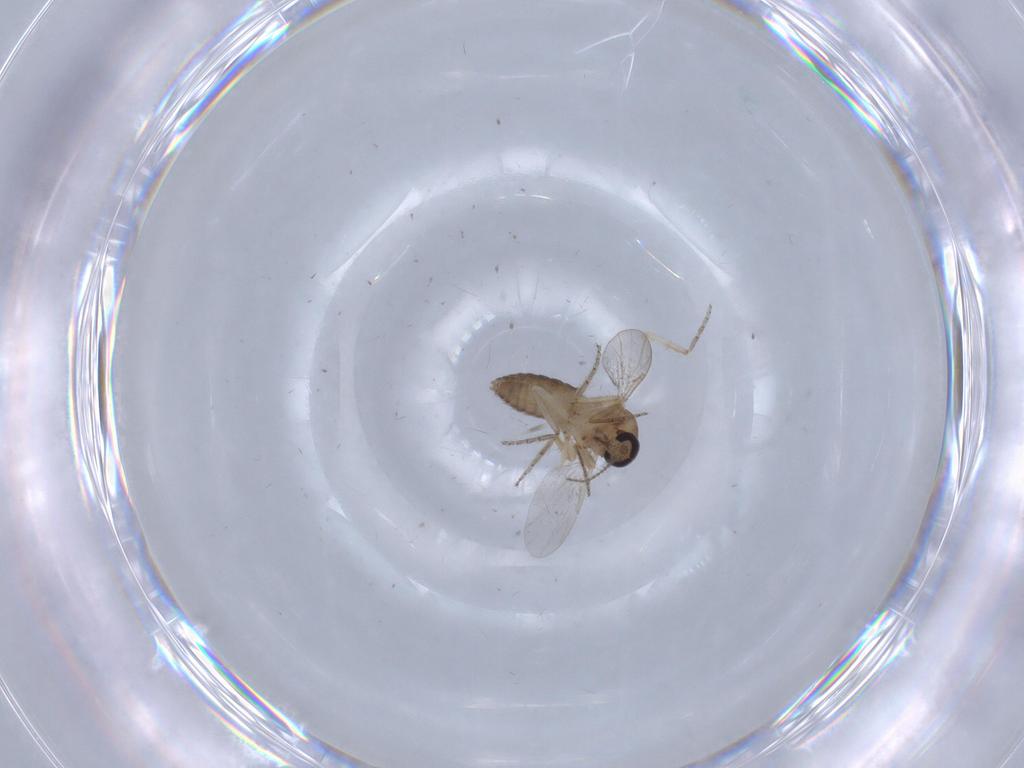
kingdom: Animalia
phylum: Arthropoda
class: Insecta
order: Diptera
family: Ceratopogonidae
